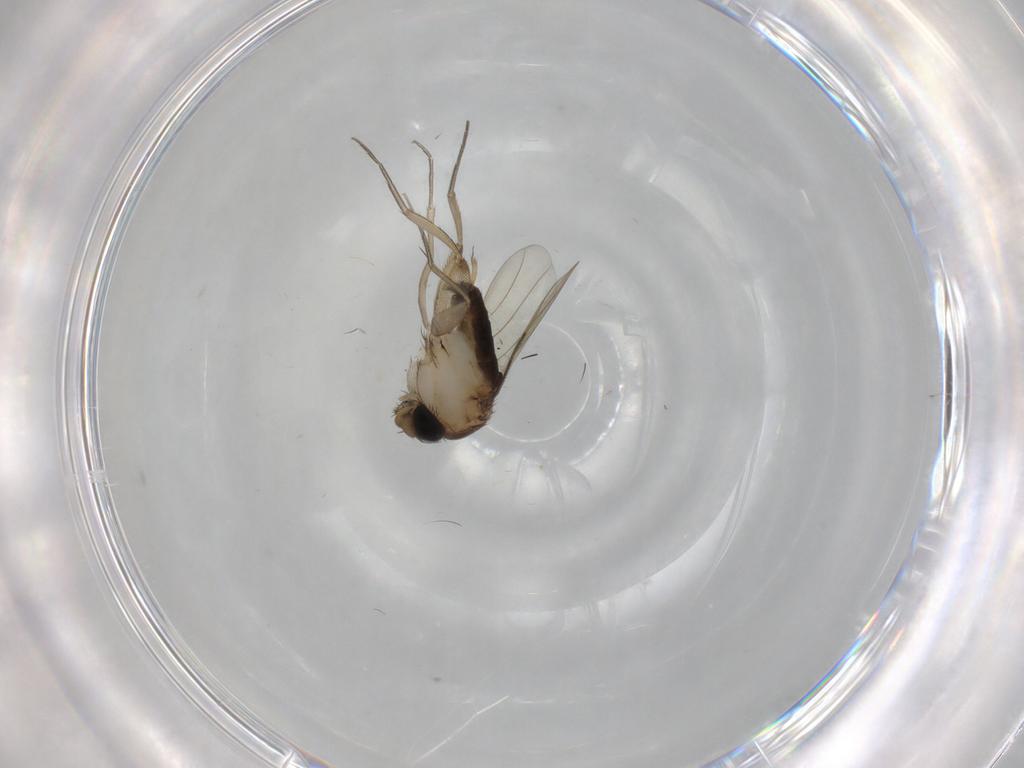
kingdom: Animalia
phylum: Arthropoda
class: Insecta
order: Diptera
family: Phoridae
